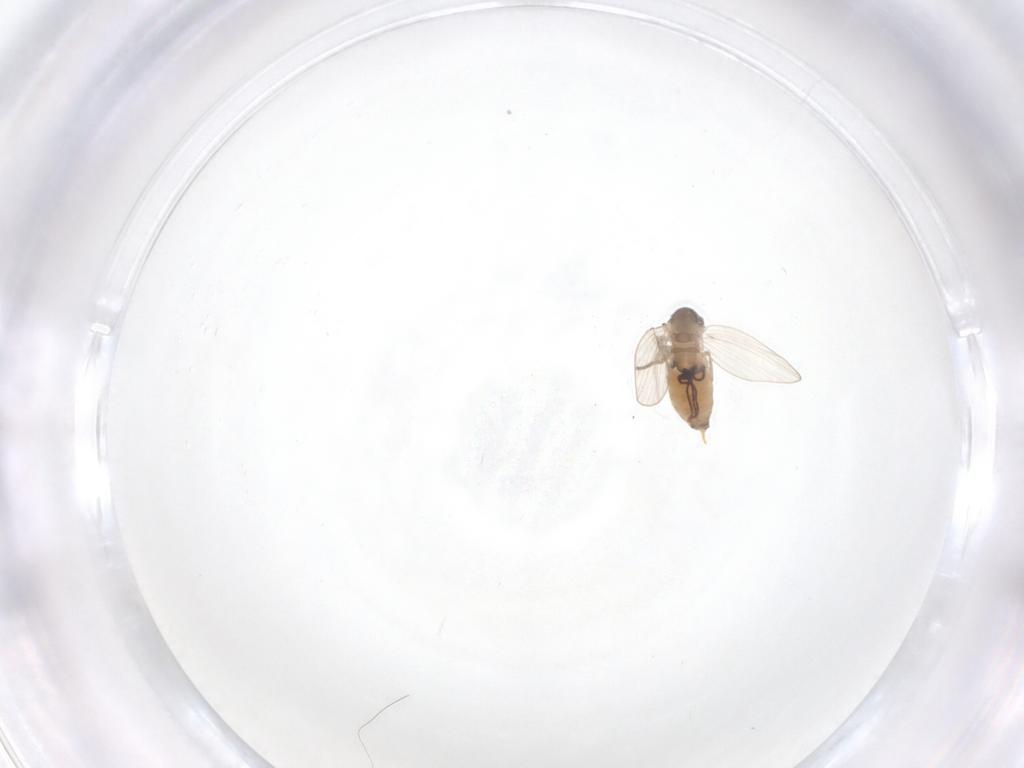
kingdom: Animalia
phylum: Arthropoda
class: Insecta
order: Diptera
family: Psychodidae
